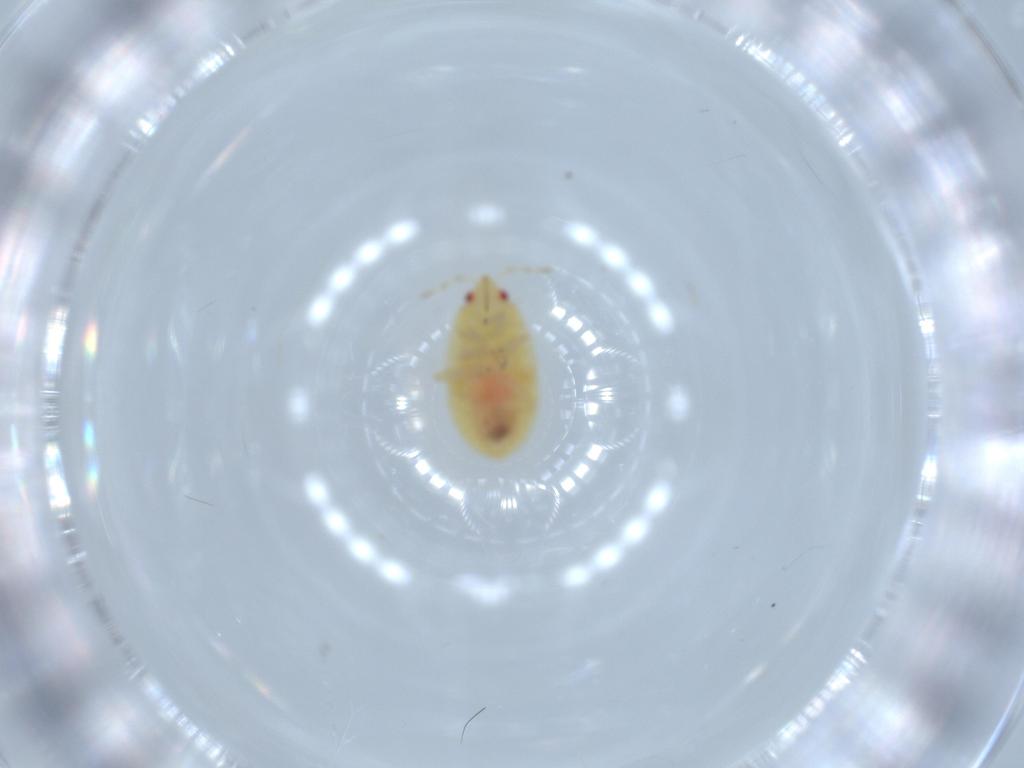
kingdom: Animalia
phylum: Arthropoda
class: Insecta
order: Hemiptera
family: Anthocoridae
